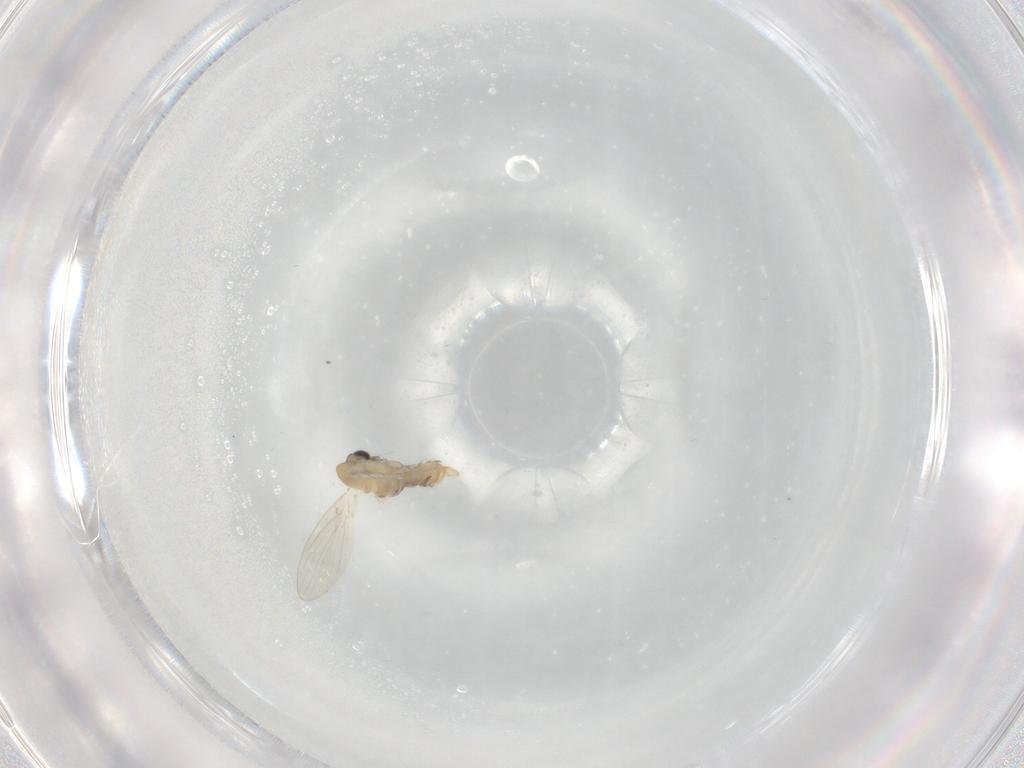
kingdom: Animalia
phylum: Arthropoda
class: Insecta
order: Diptera
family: Psychodidae
